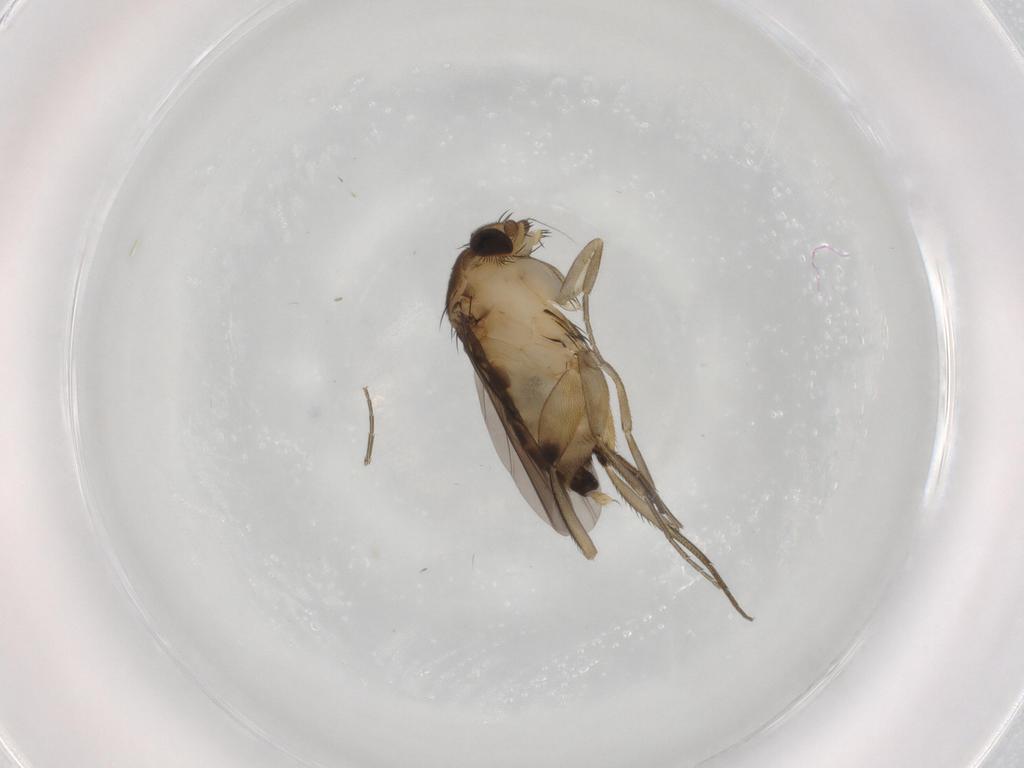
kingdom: Animalia
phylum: Arthropoda
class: Insecta
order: Diptera
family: Phoridae
